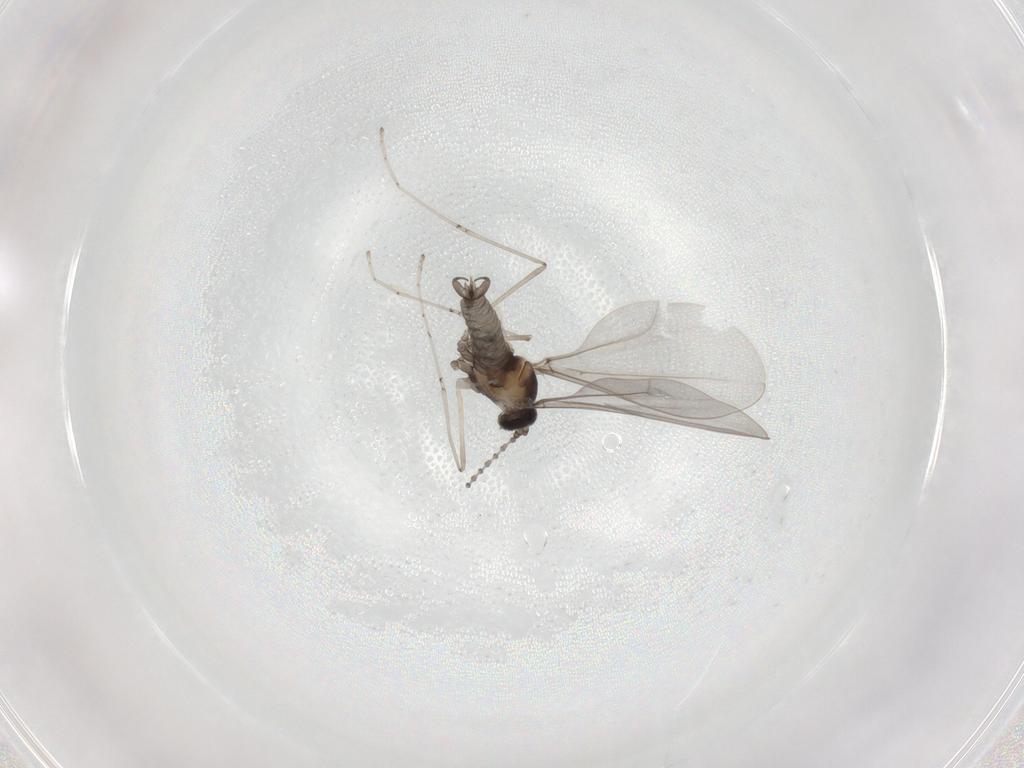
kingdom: Animalia
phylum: Arthropoda
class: Insecta
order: Diptera
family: Cecidomyiidae
